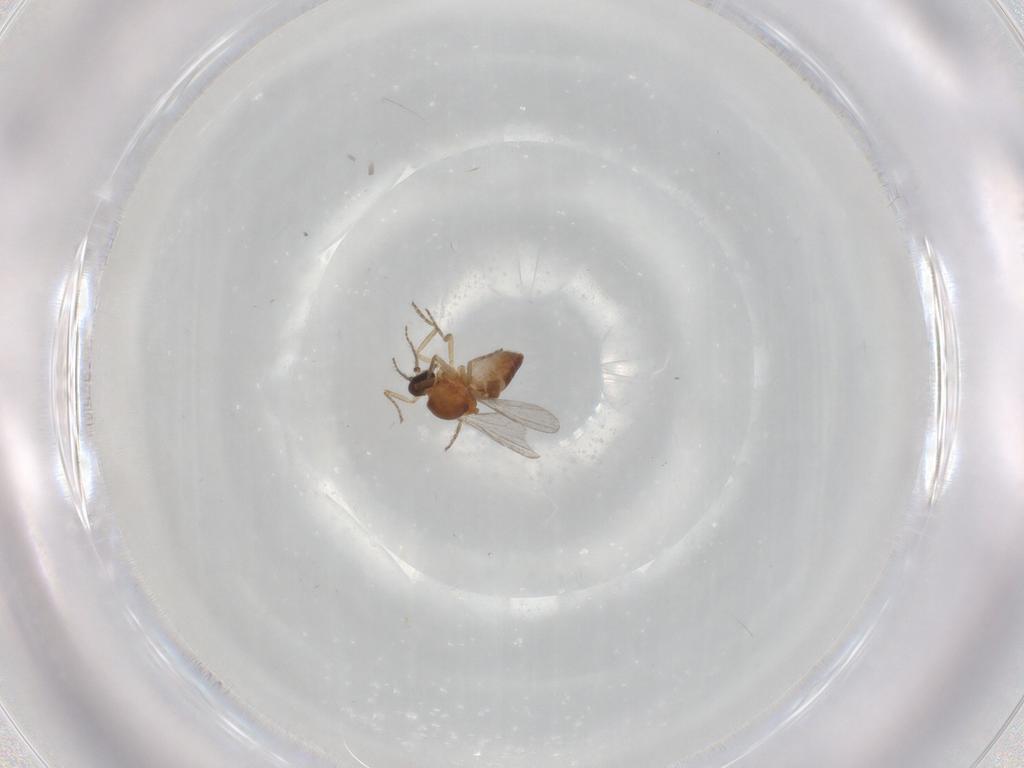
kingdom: Animalia
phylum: Arthropoda
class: Insecta
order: Diptera
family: Ceratopogonidae
